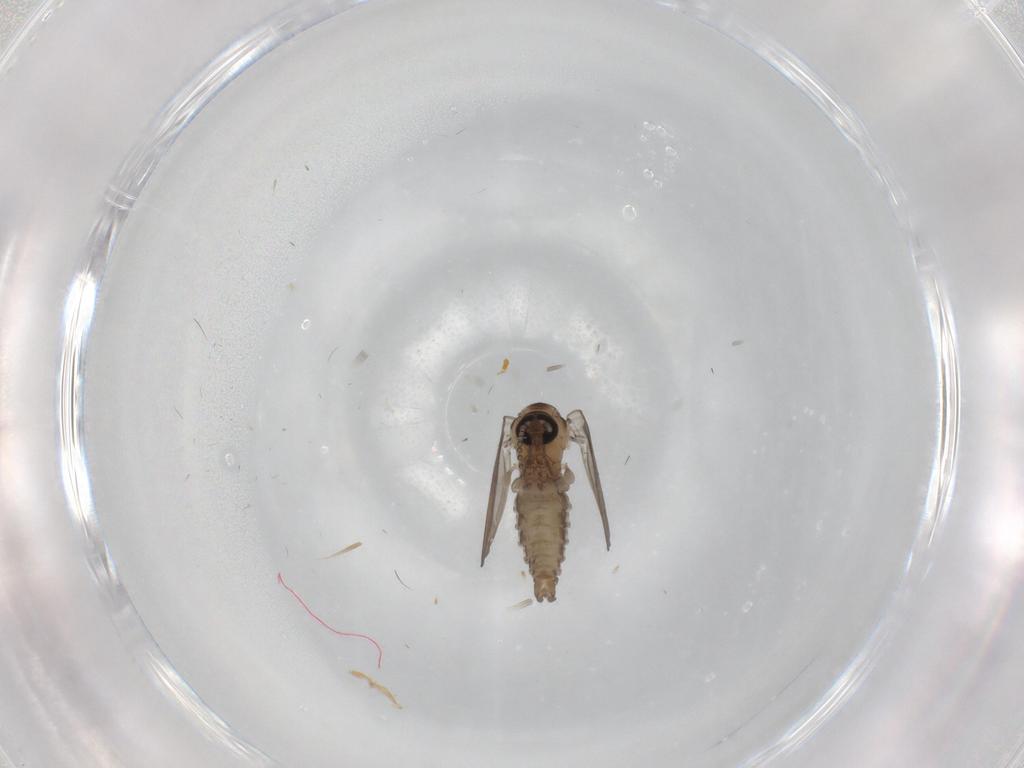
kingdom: Animalia
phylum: Arthropoda
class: Insecta
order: Diptera
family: Psychodidae
